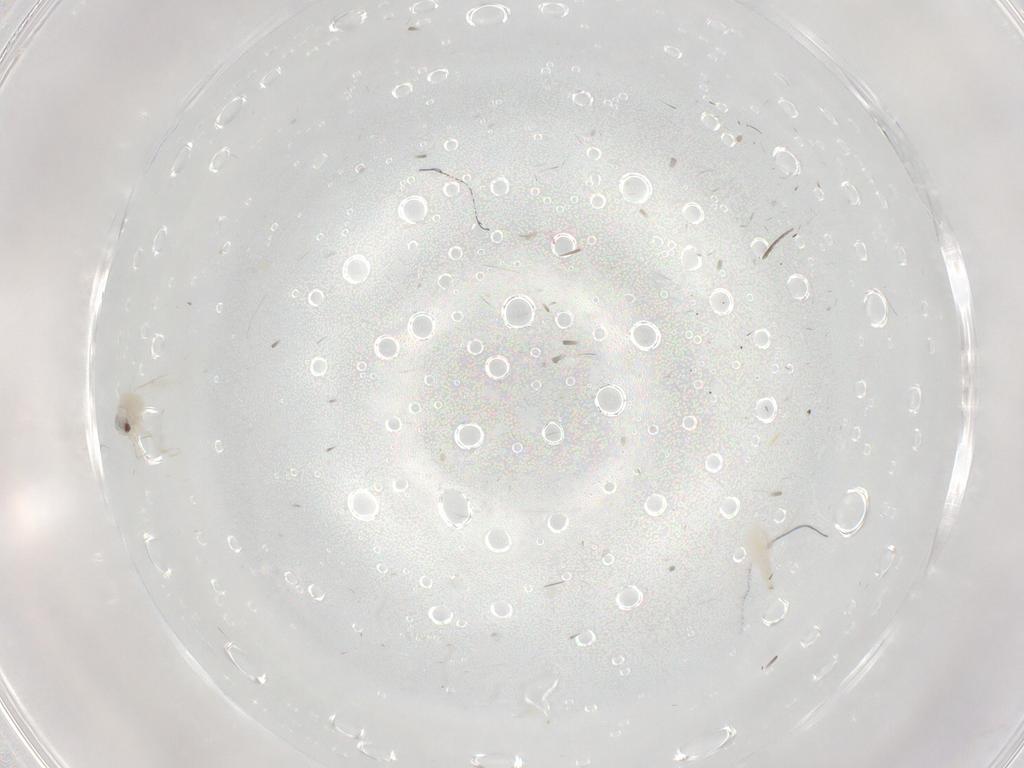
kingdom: Animalia
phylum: Arthropoda
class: Insecta
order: Hemiptera
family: Aleyrodidae
